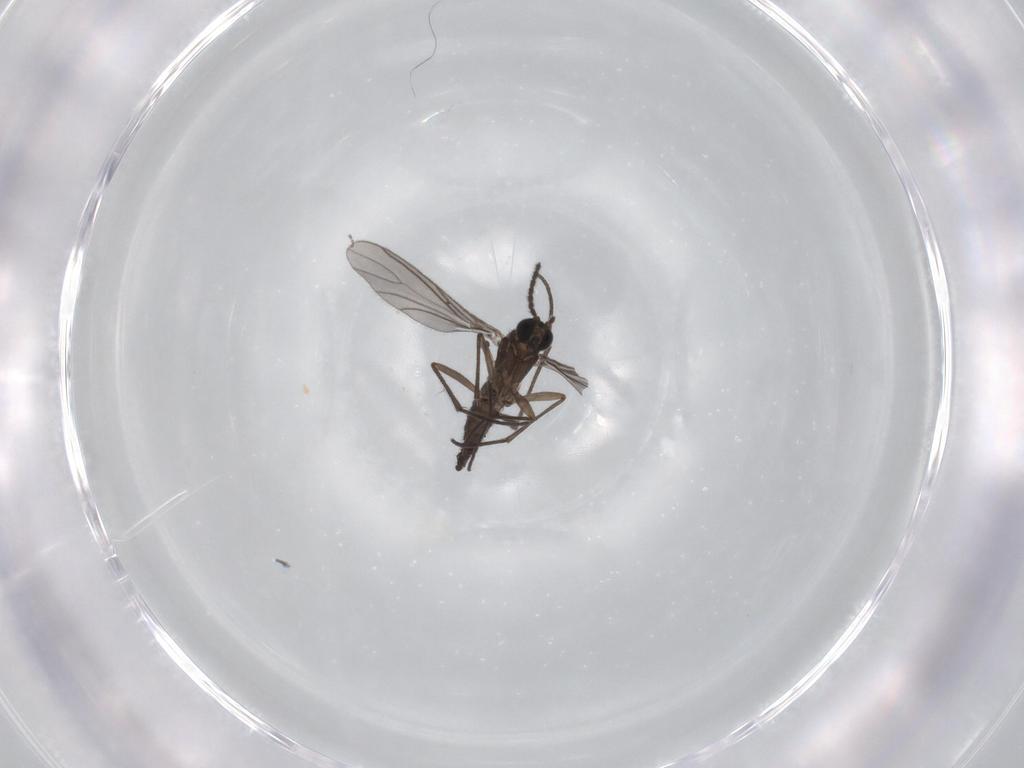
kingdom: Animalia
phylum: Arthropoda
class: Insecta
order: Diptera
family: Sciaridae
